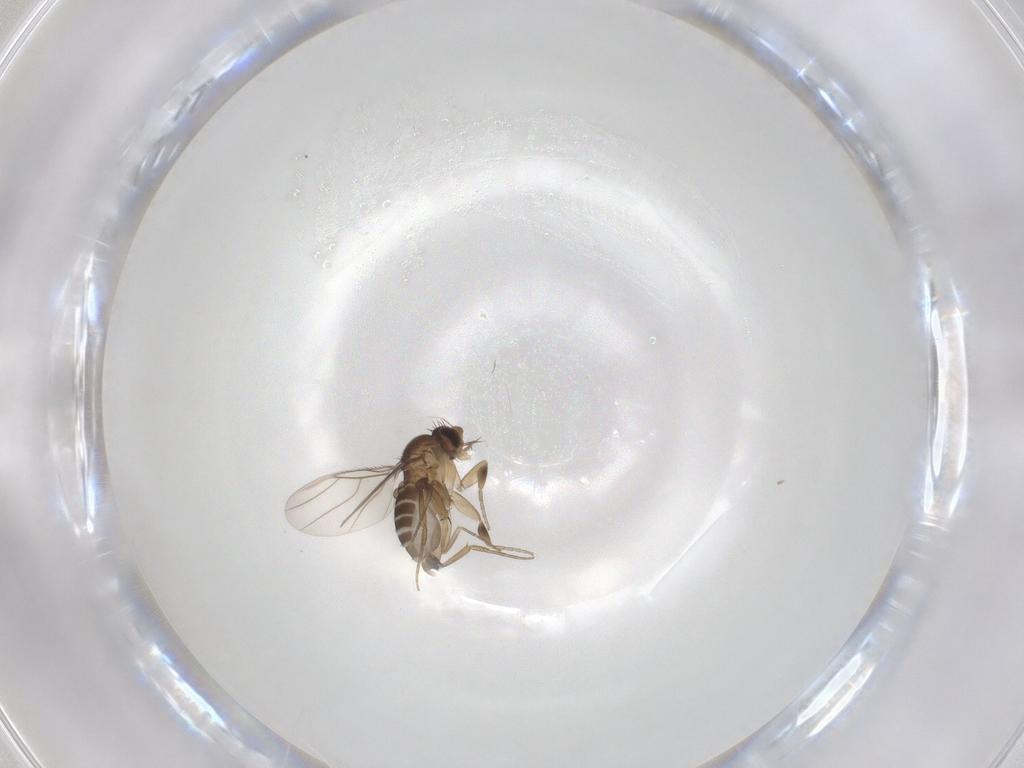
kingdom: Animalia
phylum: Arthropoda
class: Insecta
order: Diptera
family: Phoridae
